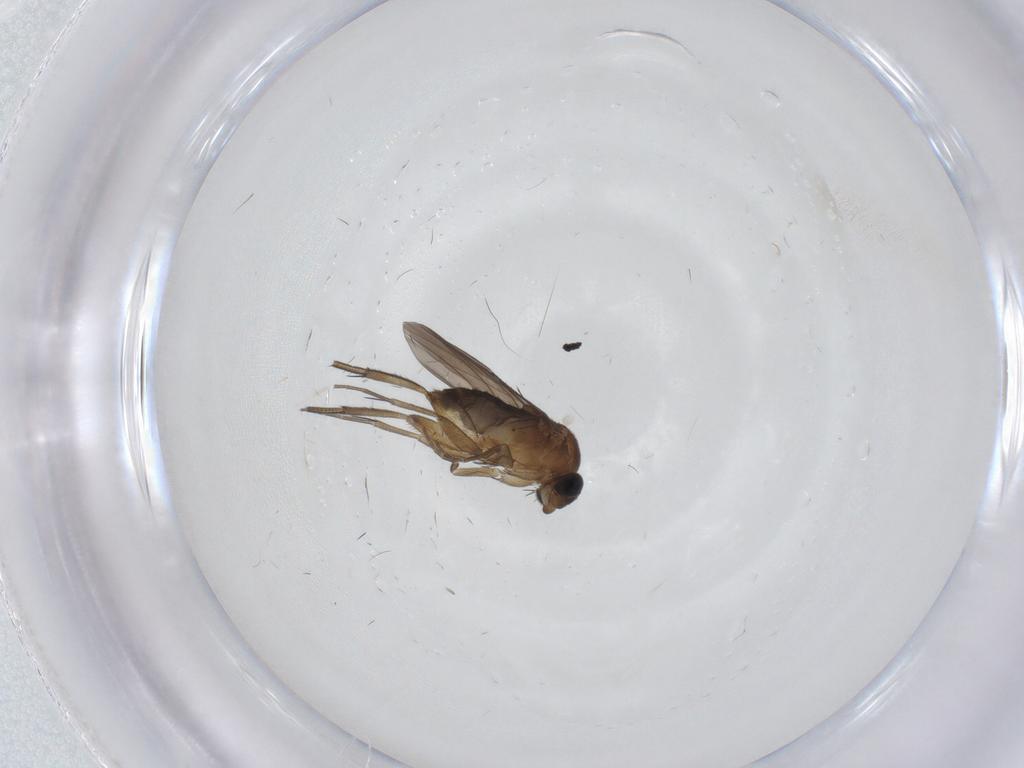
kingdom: Animalia
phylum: Arthropoda
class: Insecta
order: Diptera
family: Phoridae
